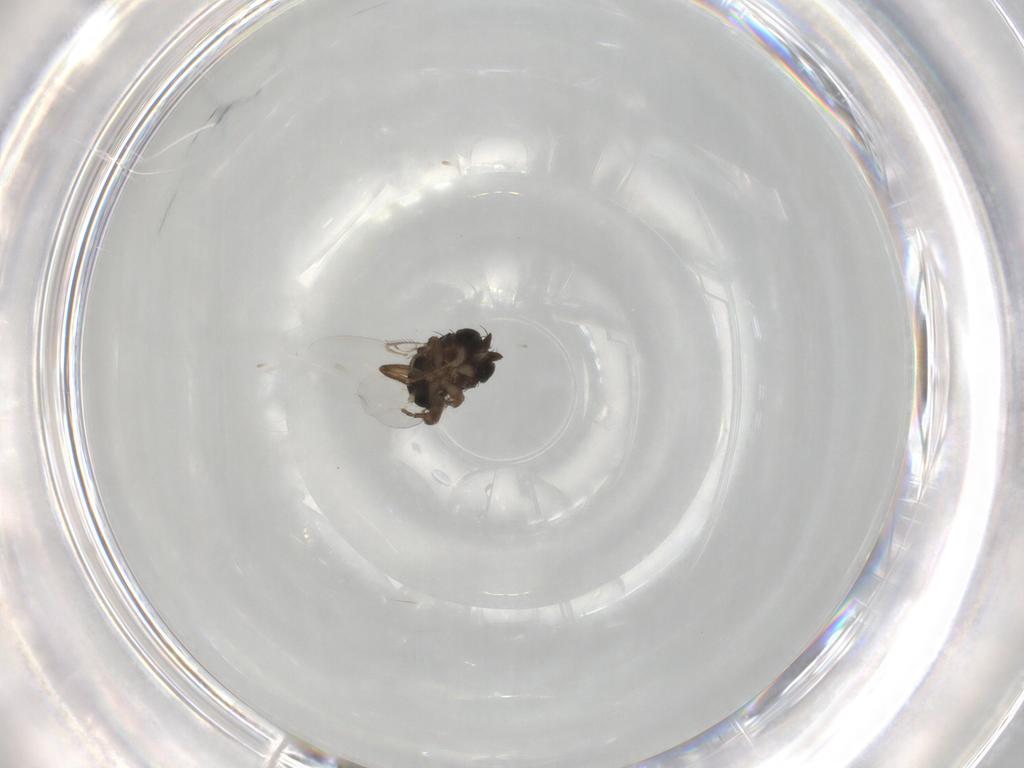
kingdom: Animalia
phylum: Arthropoda
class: Insecta
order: Diptera
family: Phoridae
